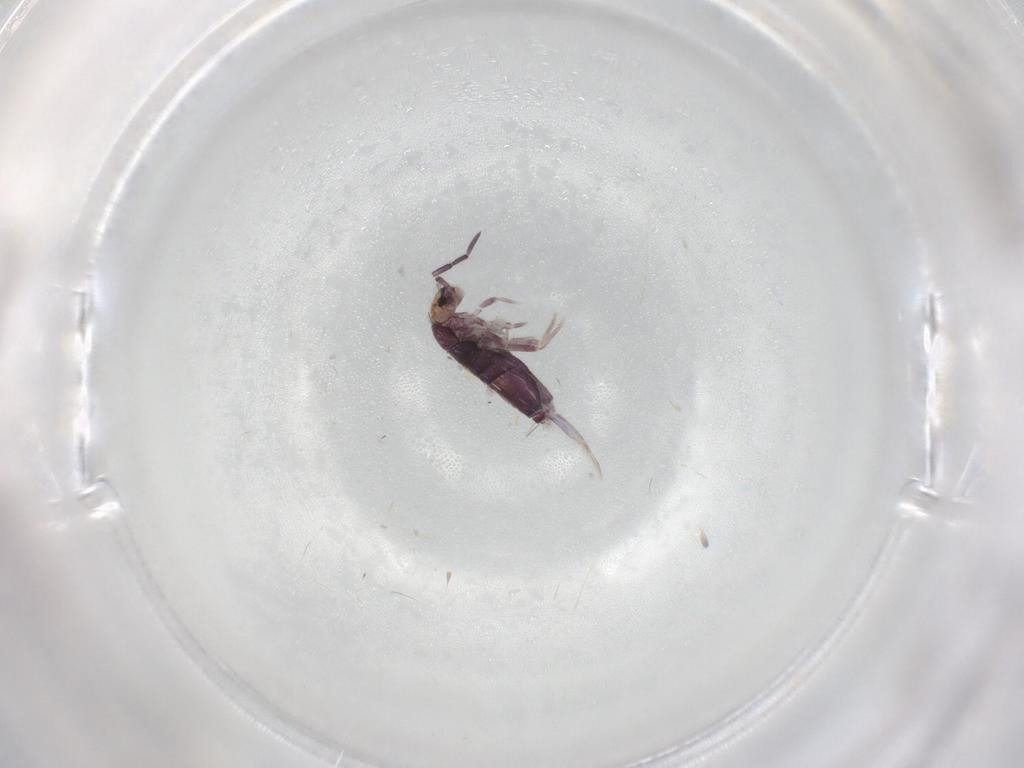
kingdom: Animalia
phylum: Arthropoda
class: Collembola
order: Entomobryomorpha
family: Entomobryidae
